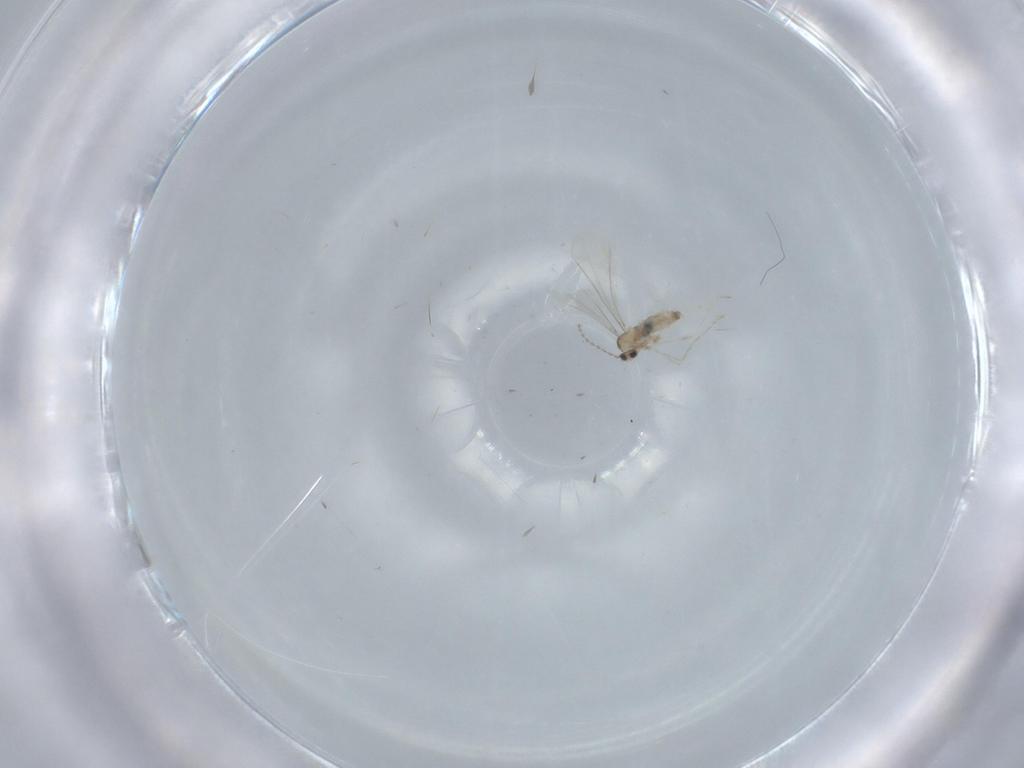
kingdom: Animalia
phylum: Arthropoda
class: Insecta
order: Diptera
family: Cecidomyiidae
